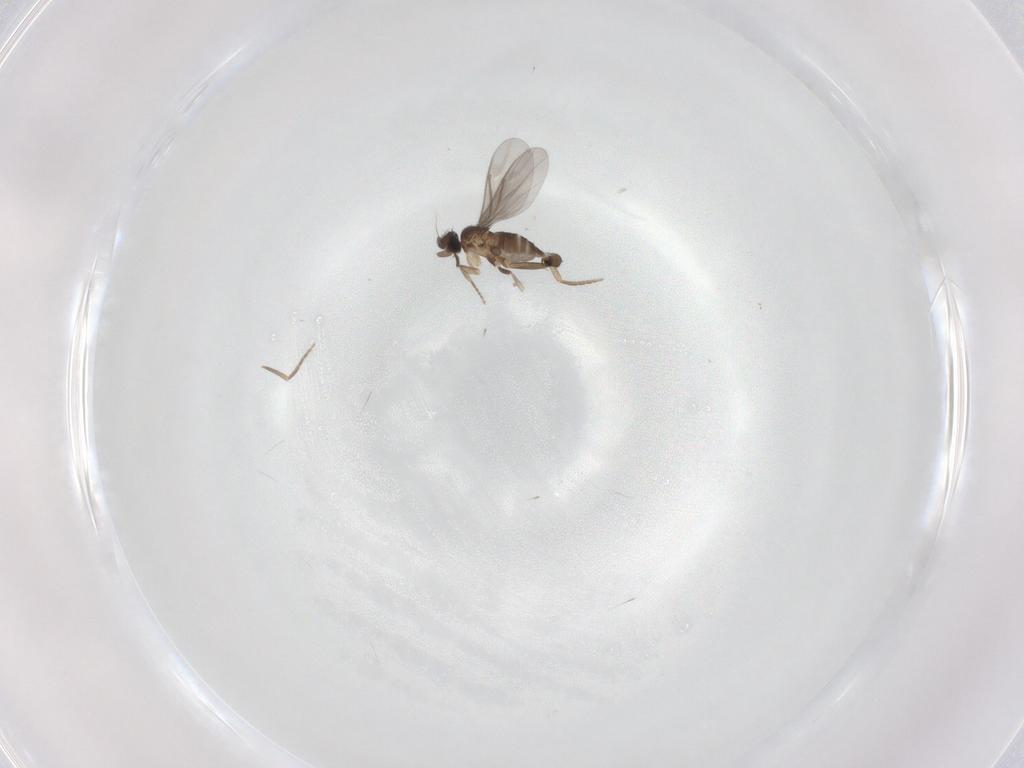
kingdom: Animalia
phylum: Arthropoda
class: Insecta
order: Diptera
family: Phoridae
